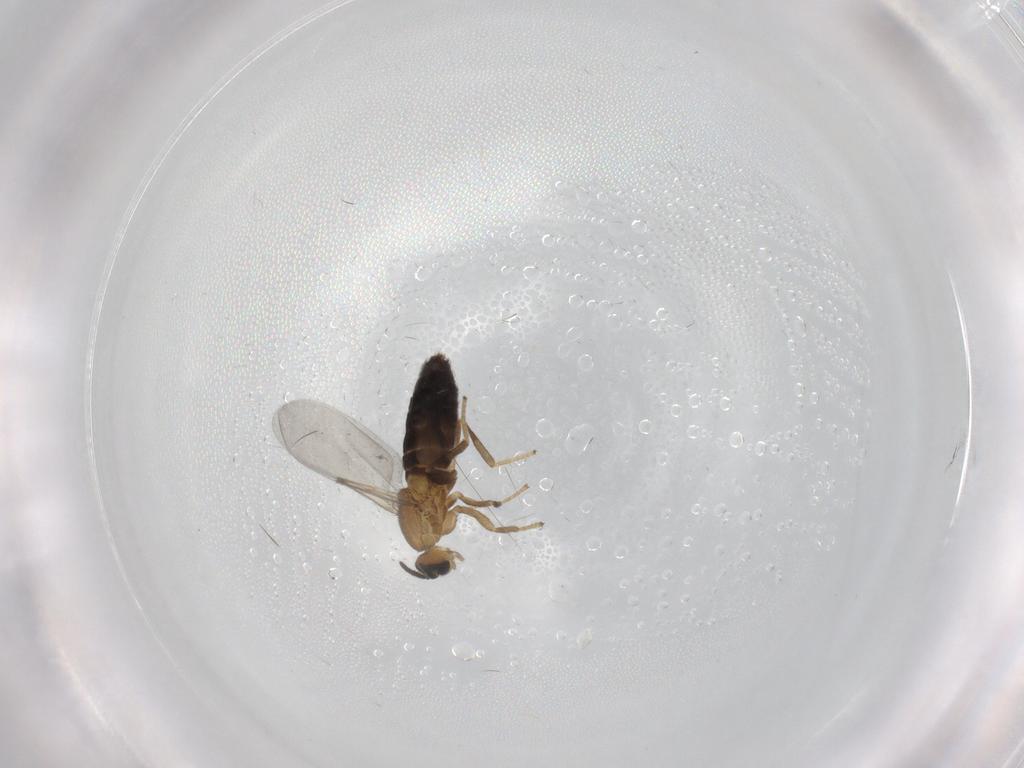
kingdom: Animalia
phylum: Arthropoda
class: Insecta
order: Diptera
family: Scatopsidae
